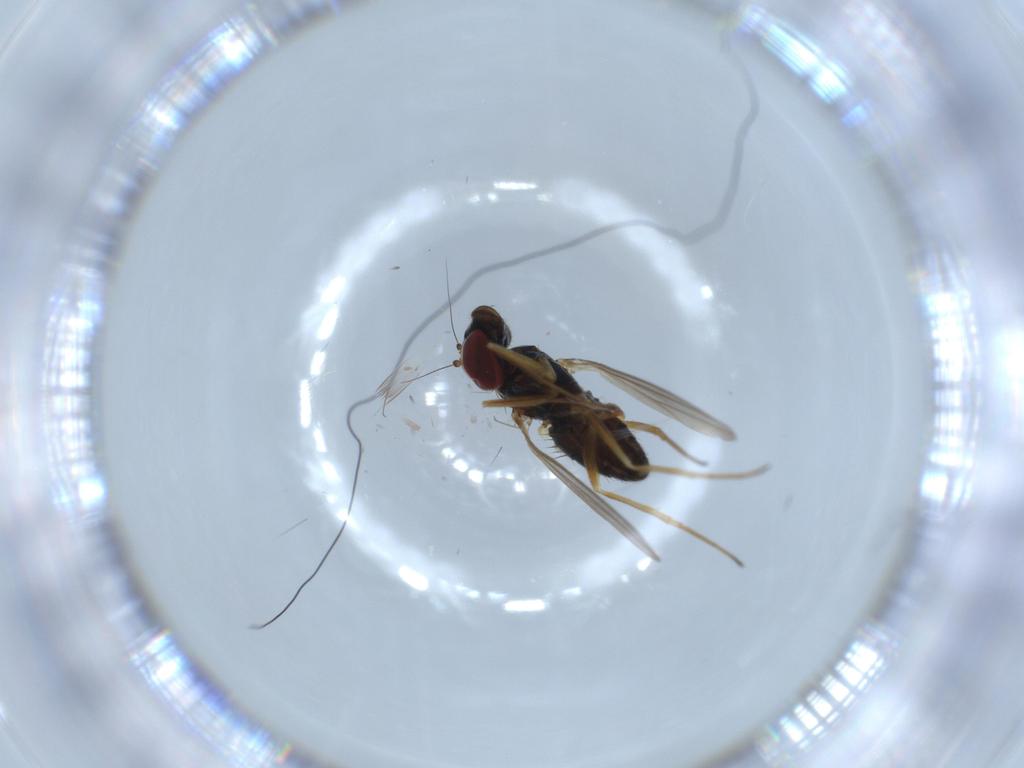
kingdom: Animalia
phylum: Arthropoda
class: Insecta
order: Diptera
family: Dolichopodidae
